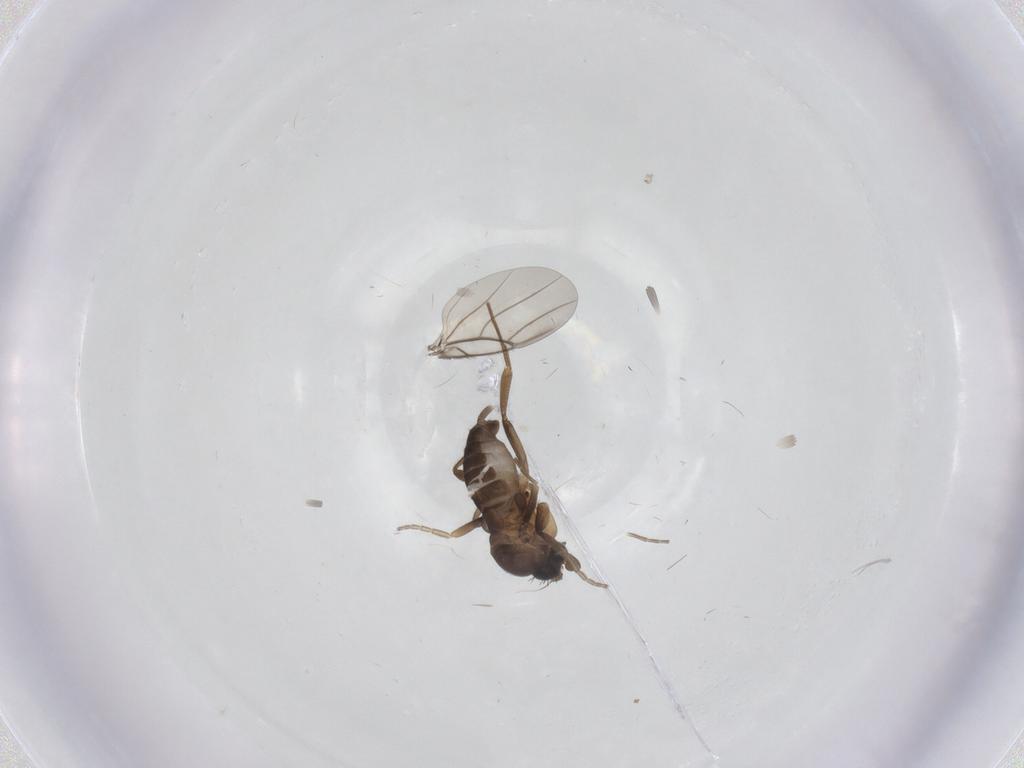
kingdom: Animalia
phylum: Arthropoda
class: Insecta
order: Diptera
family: Phoridae
